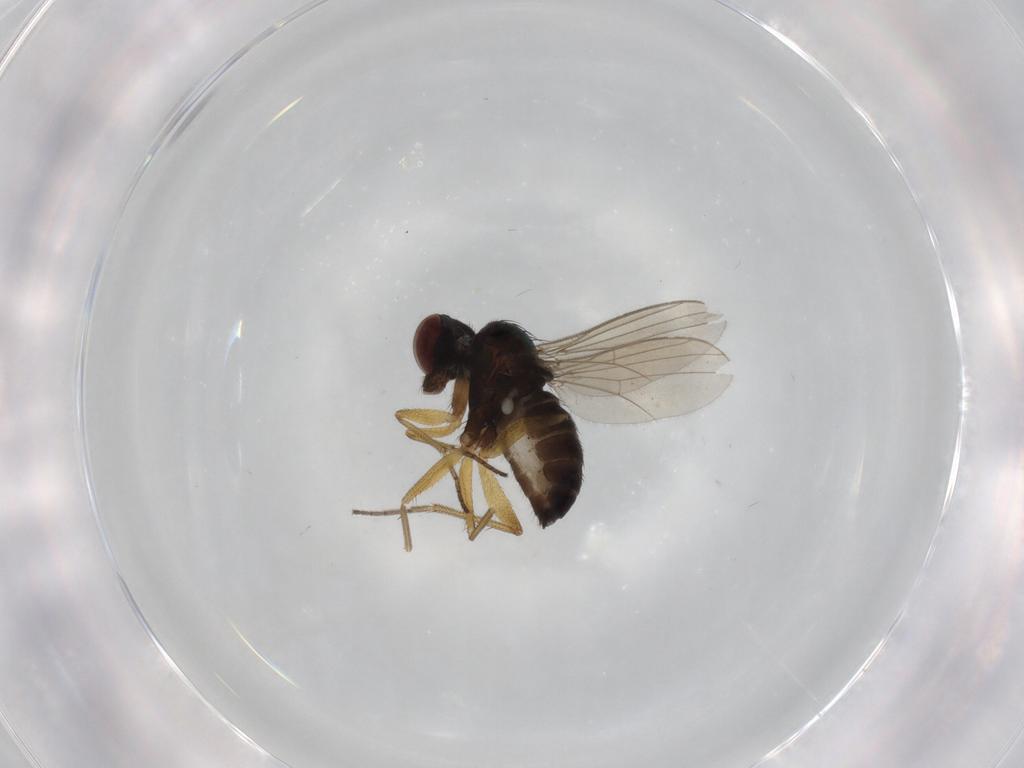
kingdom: Animalia
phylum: Arthropoda
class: Insecta
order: Diptera
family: Dolichopodidae
